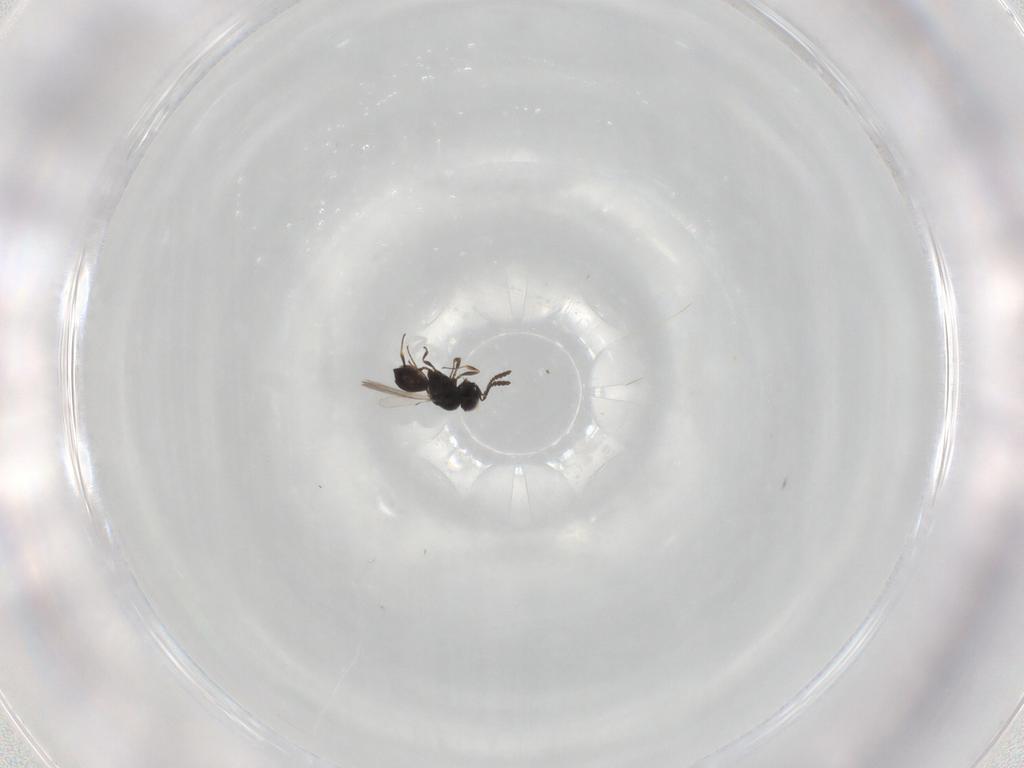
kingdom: Animalia
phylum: Arthropoda
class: Insecta
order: Hymenoptera
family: Scelionidae
